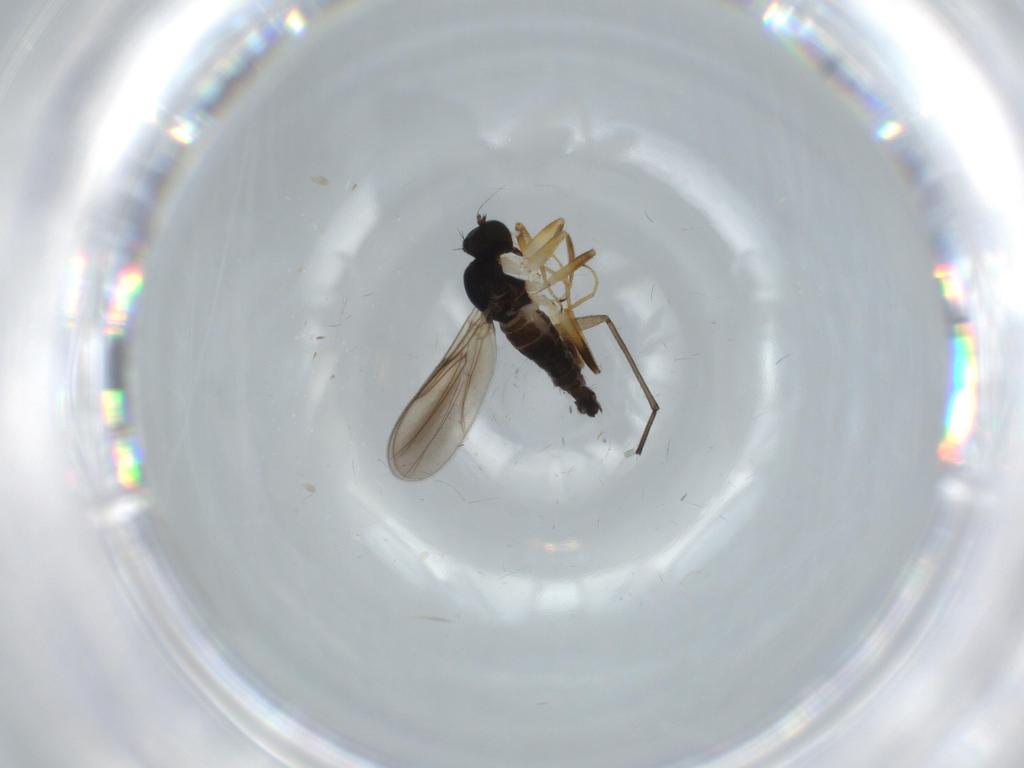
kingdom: Animalia
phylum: Arthropoda
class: Insecta
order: Diptera
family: Hybotidae
